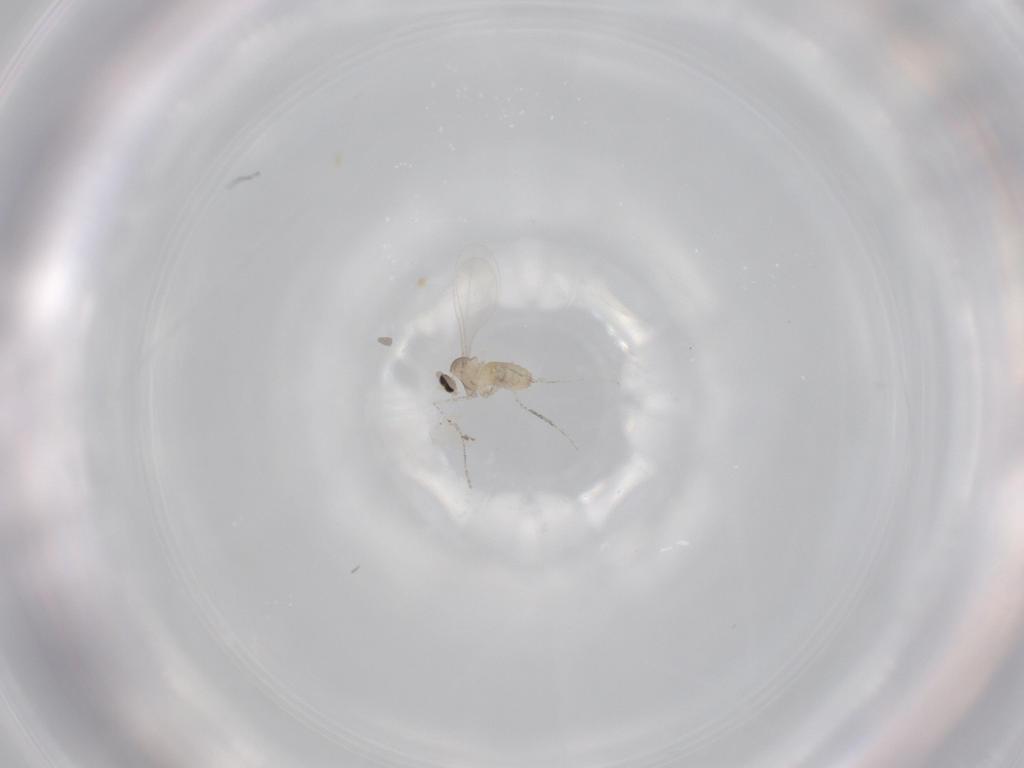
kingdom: Animalia
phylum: Arthropoda
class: Insecta
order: Diptera
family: Cecidomyiidae
